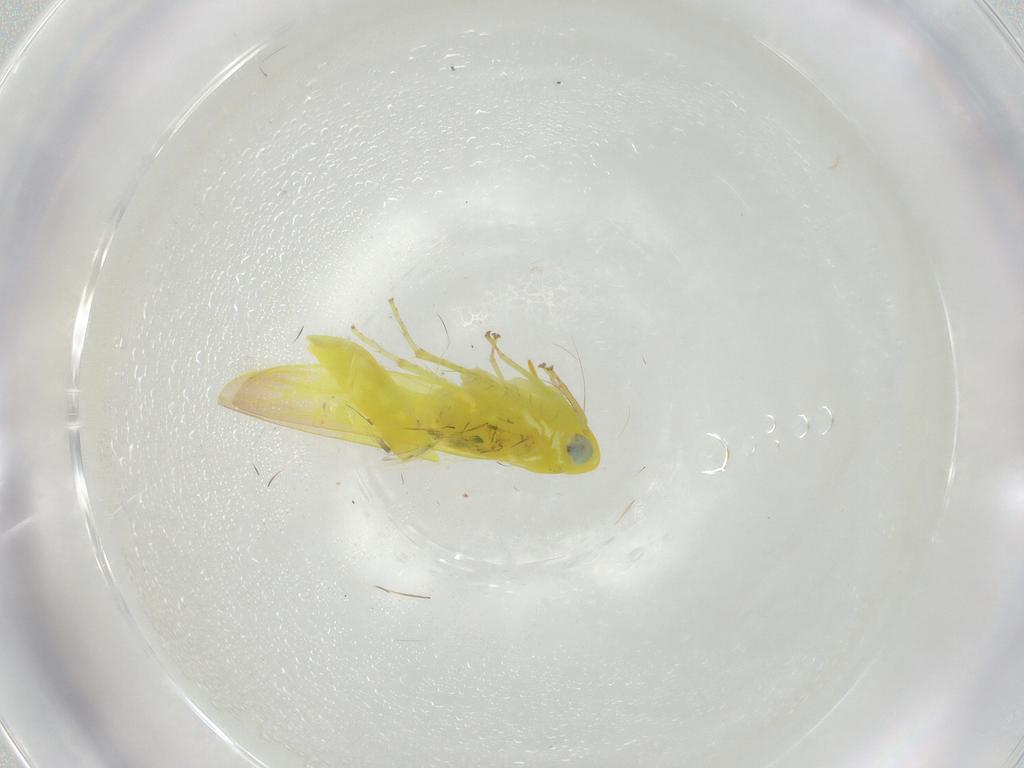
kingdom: Animalia
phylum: Arthropoda
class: Insecta
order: Hemiptera
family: Cicadellidae
